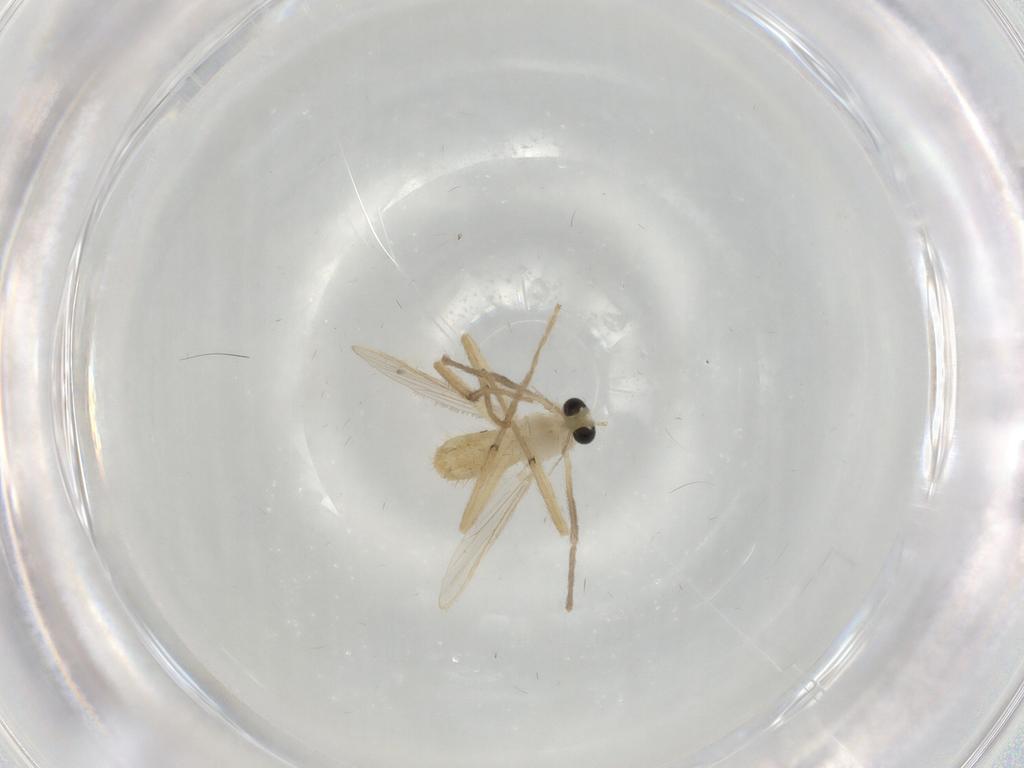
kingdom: Animalia
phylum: Arthropoda
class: Insecta
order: Diptera
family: Chironomidae
